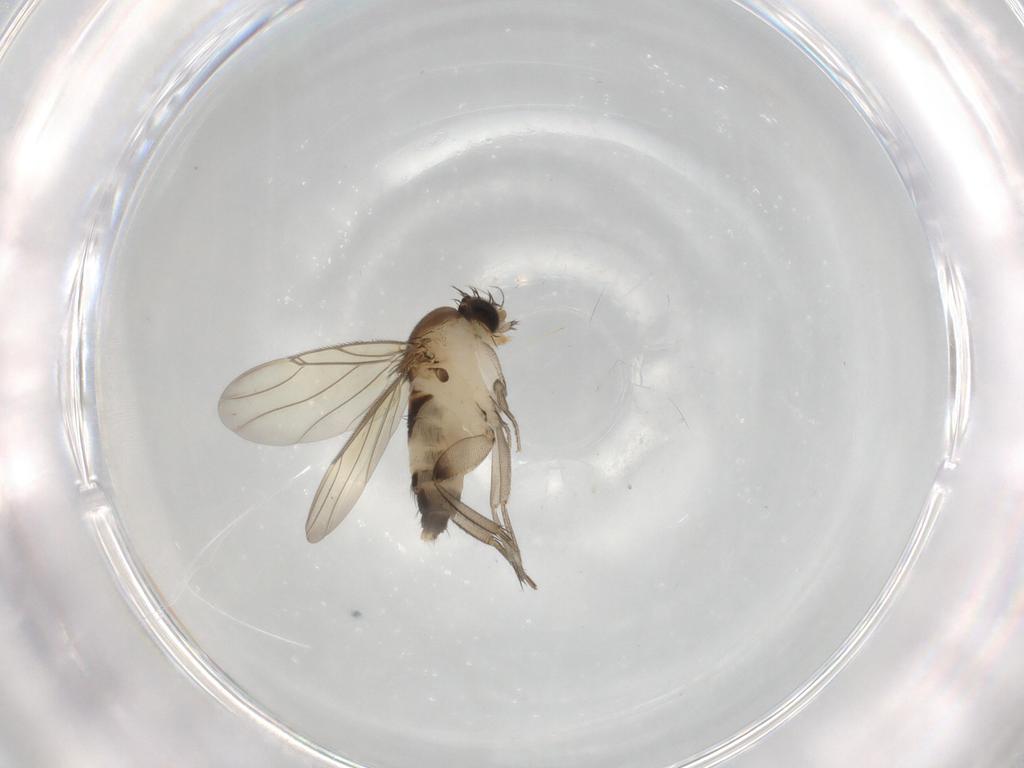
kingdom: Animalia
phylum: Arthropoda
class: Insecta
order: Diptera
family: Phoridae
